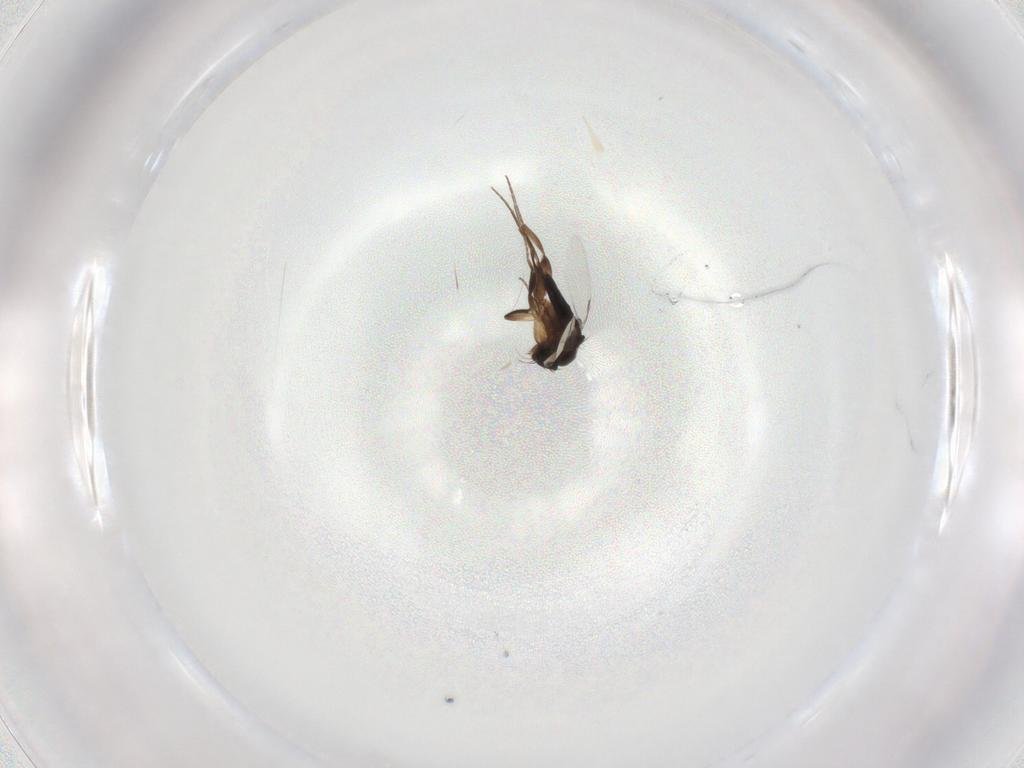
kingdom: Animalia
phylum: Arthropoda
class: Insecta
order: Diptera
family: Phoridae
